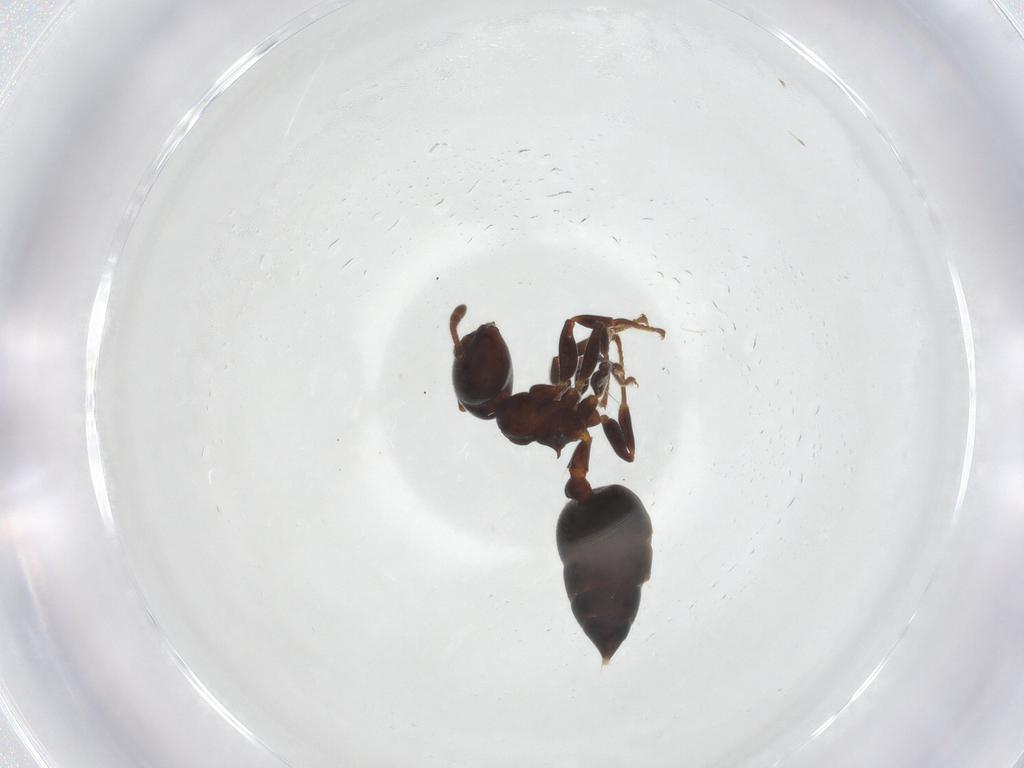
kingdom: Animalia
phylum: Arthropoda
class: Insecta
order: Hymenoptera
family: Formicidae
